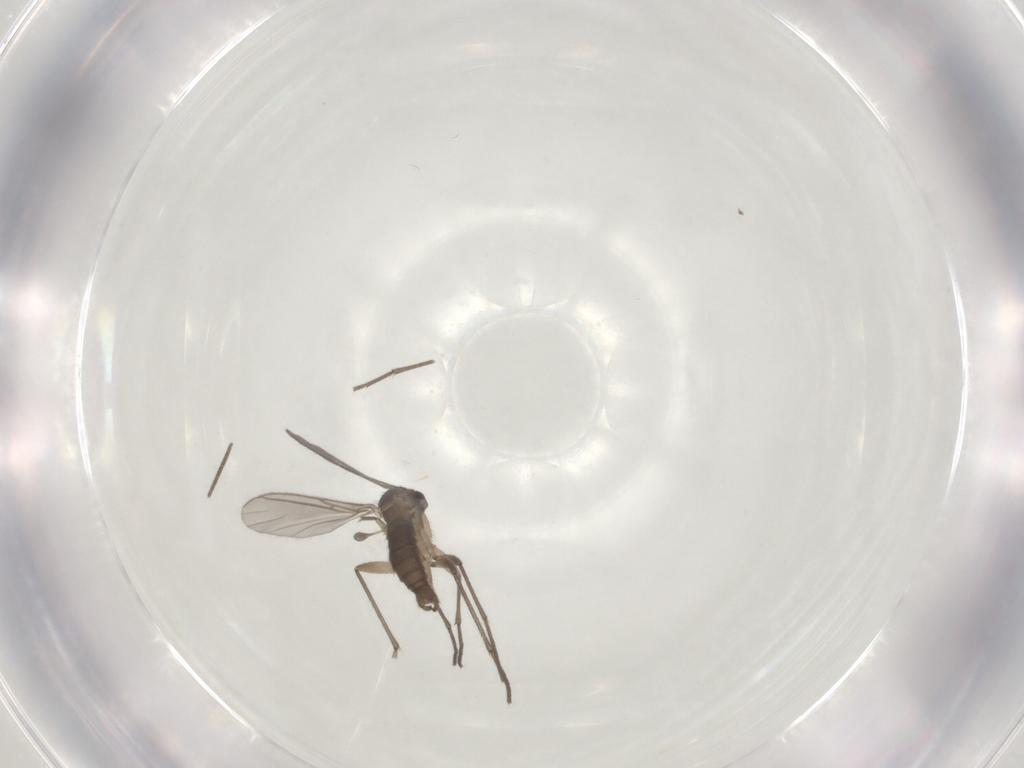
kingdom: Animalia
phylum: Arthropoda
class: Insecta
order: Diptera
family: Sciaridae
